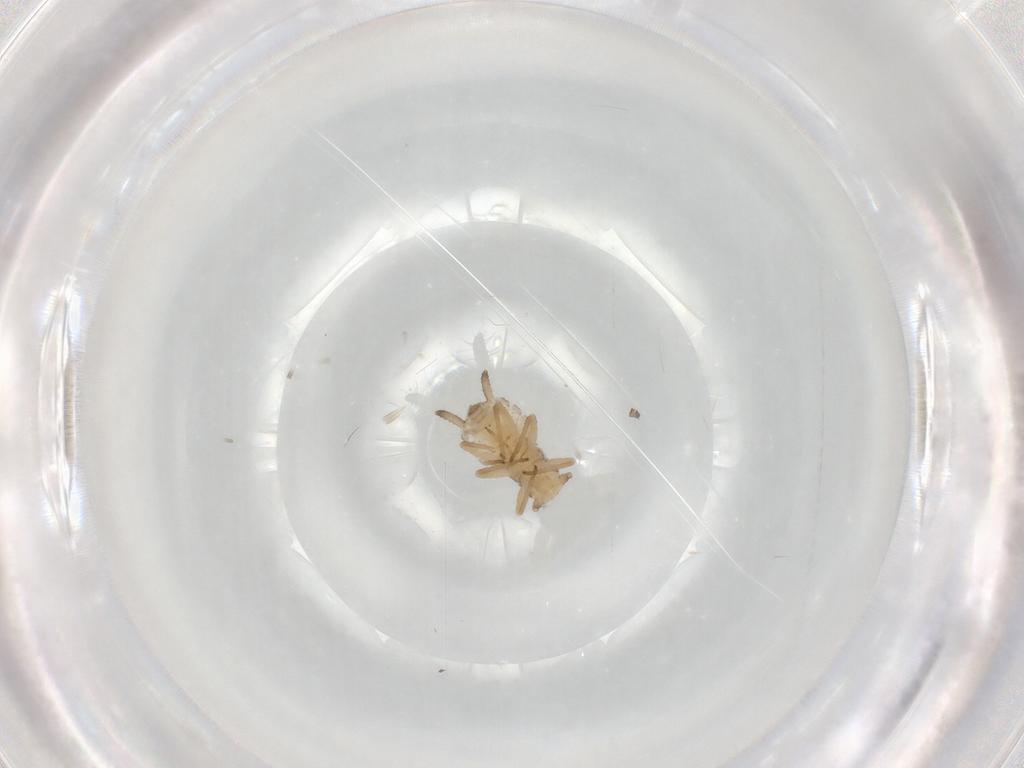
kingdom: Animalia
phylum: Arthropoda
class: Insecta
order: Hemiptera
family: Aphididae
